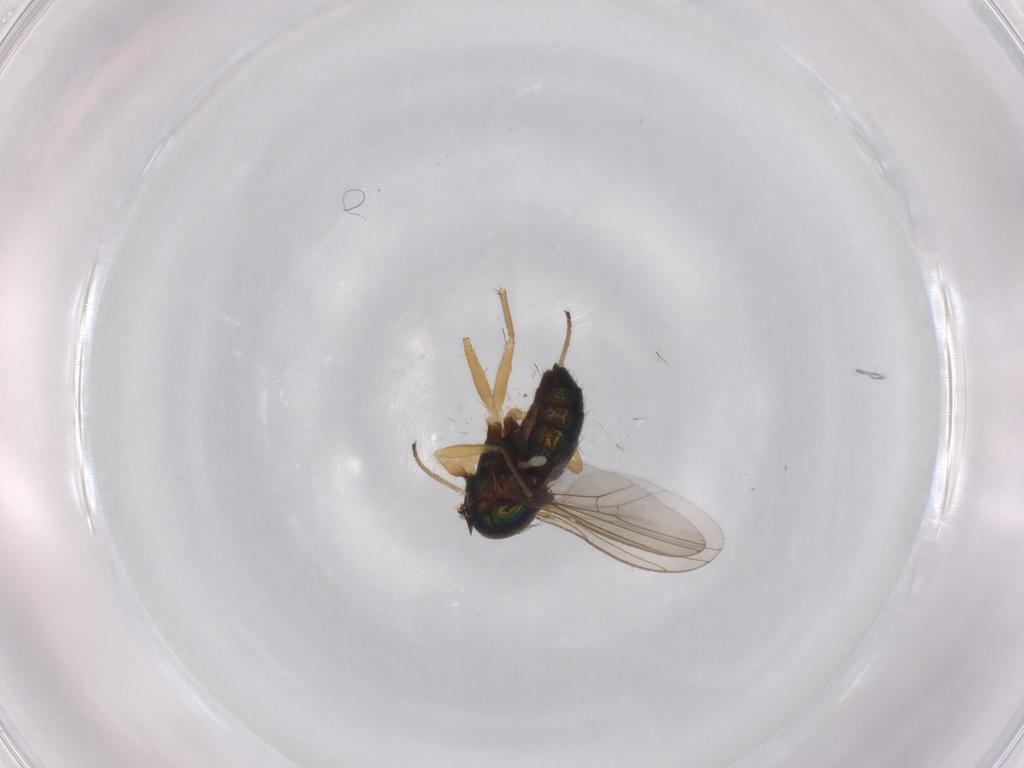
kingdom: Animalia
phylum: Arthropoda
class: Insecta
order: Diptera
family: Dolichopodidae
